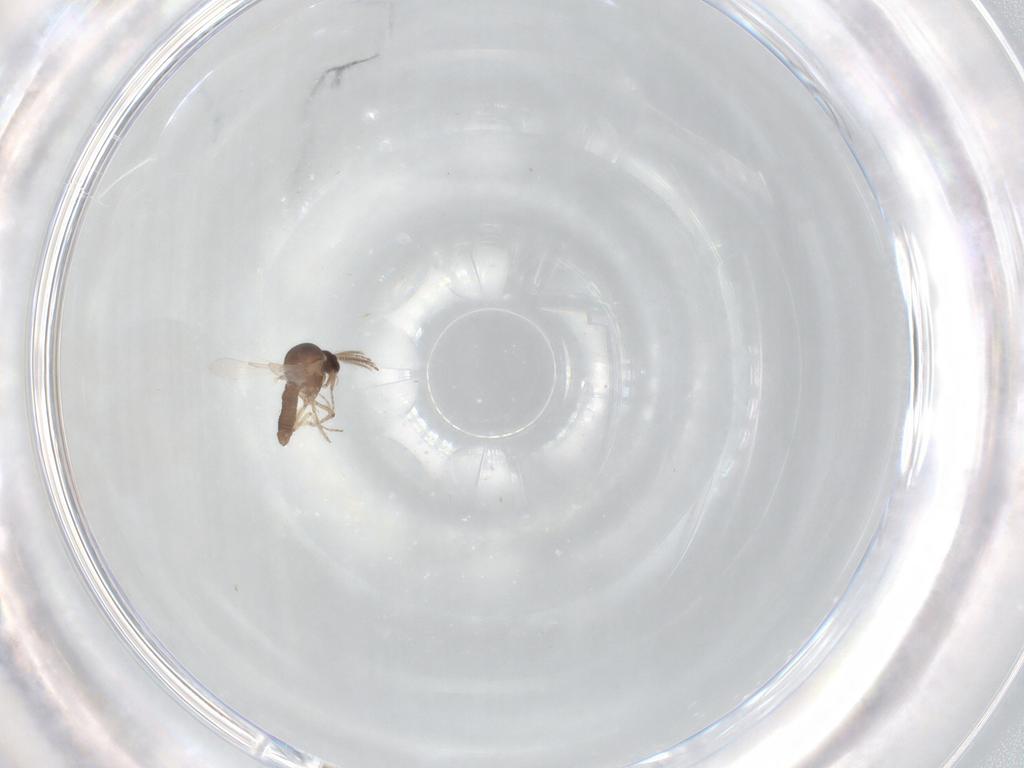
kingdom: Animalia
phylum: Arthropoda
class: Insecta
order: Diptera
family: Ceratopogonidae
